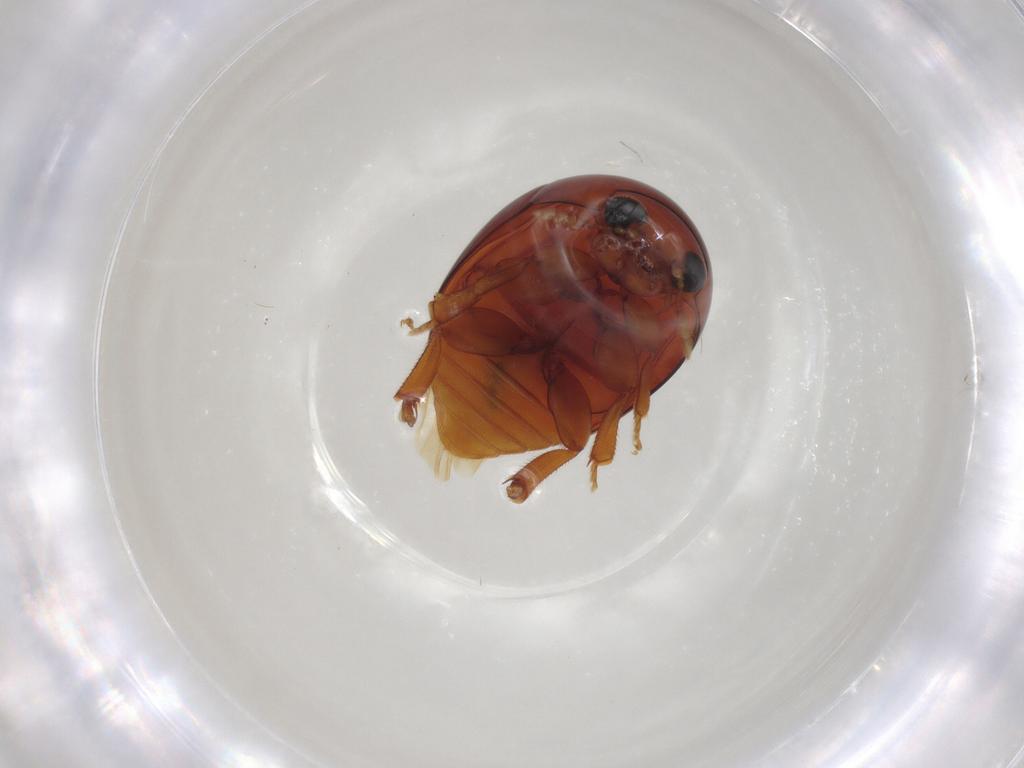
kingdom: Animalia
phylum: Arthropoda
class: Insecta
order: Coleoptera
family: Phalacridae
